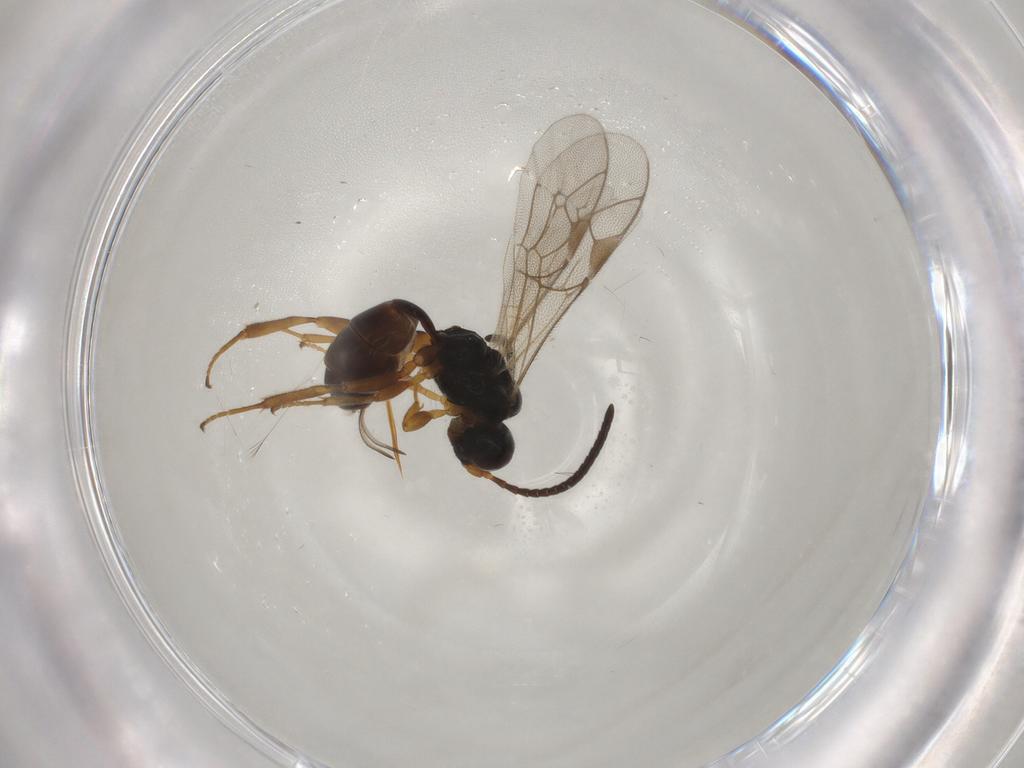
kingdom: Animalia
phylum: Arthropoda
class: Insecta
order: Hymenoptera
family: Ichneumonidae
